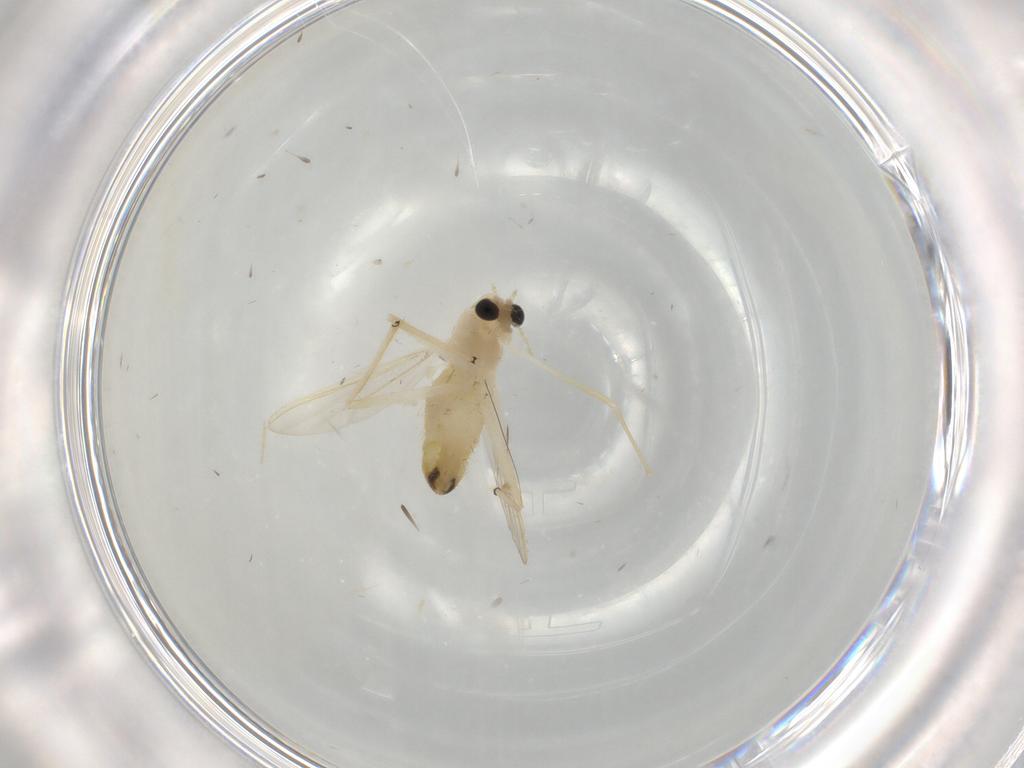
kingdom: Animalia
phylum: Arthropoda
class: Insecta
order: Diptera
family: Chironomidae
